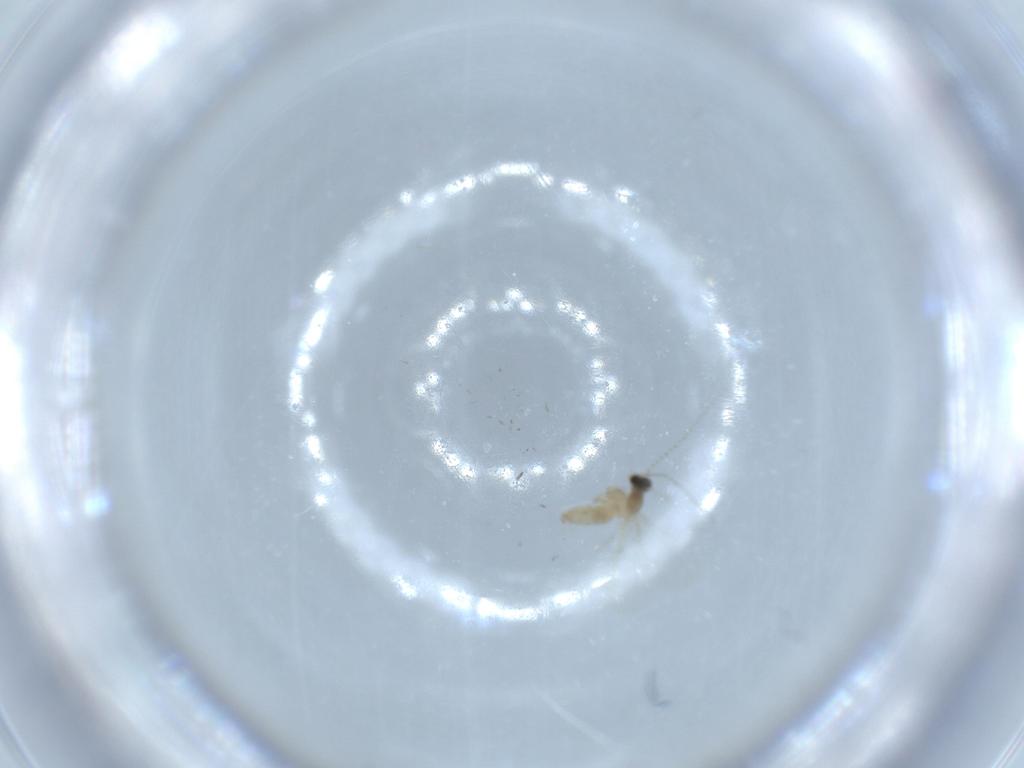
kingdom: Animalia
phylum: Arthropoda
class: Insecta
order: Diptera
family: Cecidomyiidae
